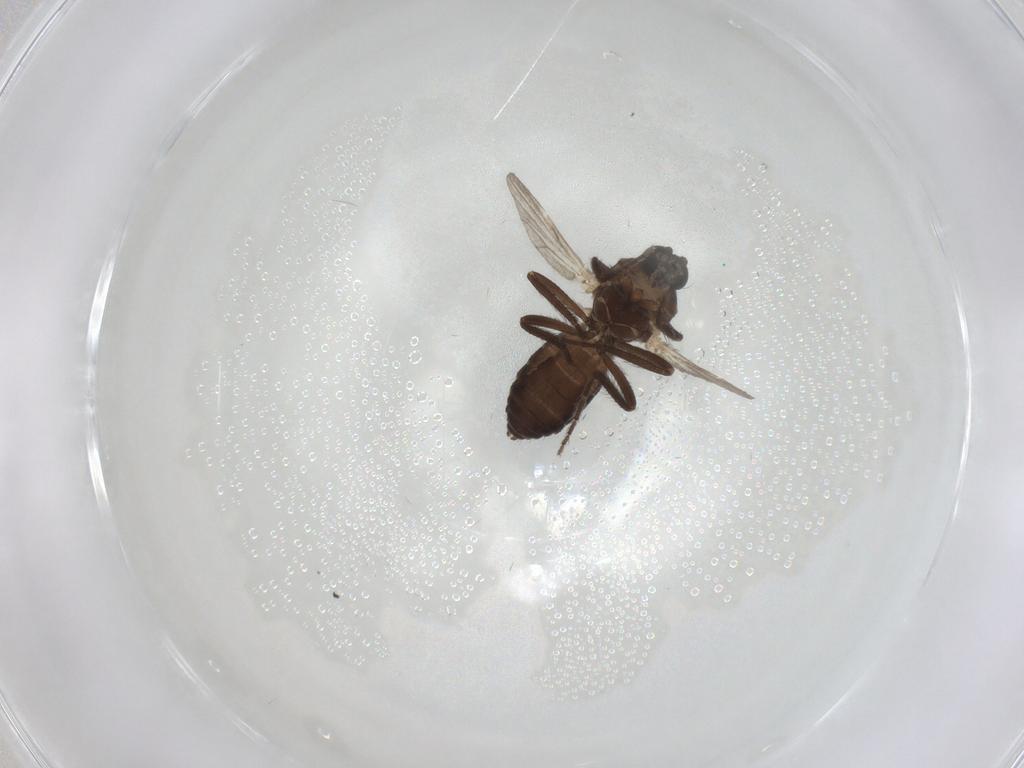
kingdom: Animalia
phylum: Arthropoda
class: Insecta
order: Diptera
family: Ceratopogonidae
